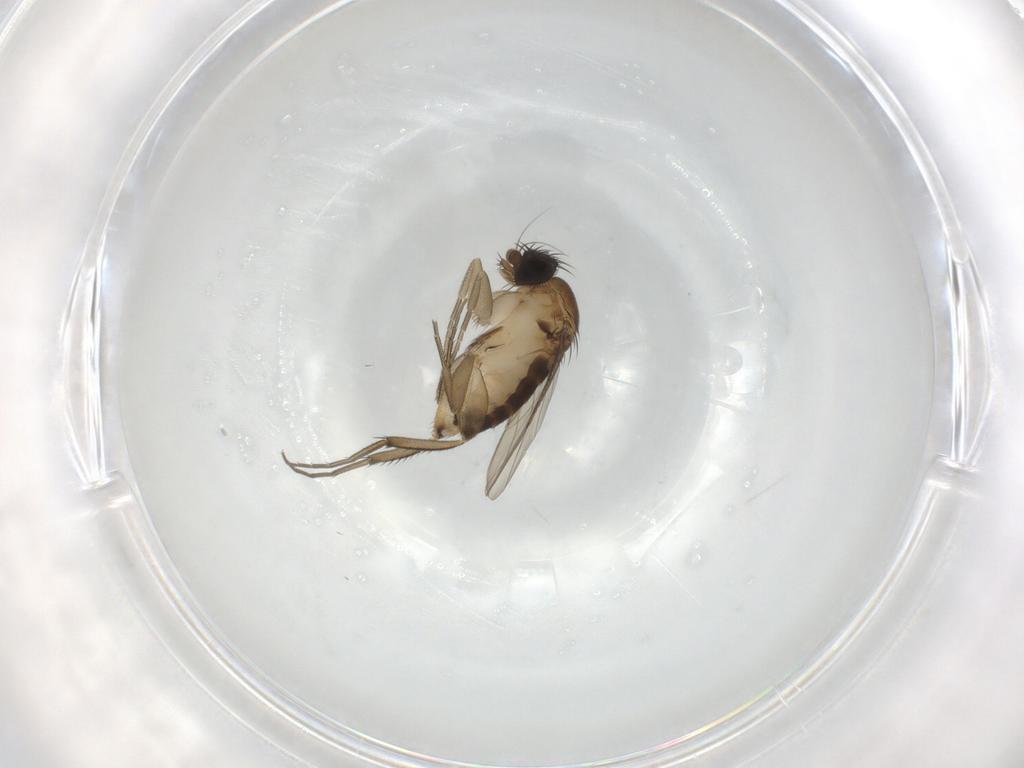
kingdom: Animalia
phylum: Arthropoda
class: Insecta
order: Diptera
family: Phoridae
